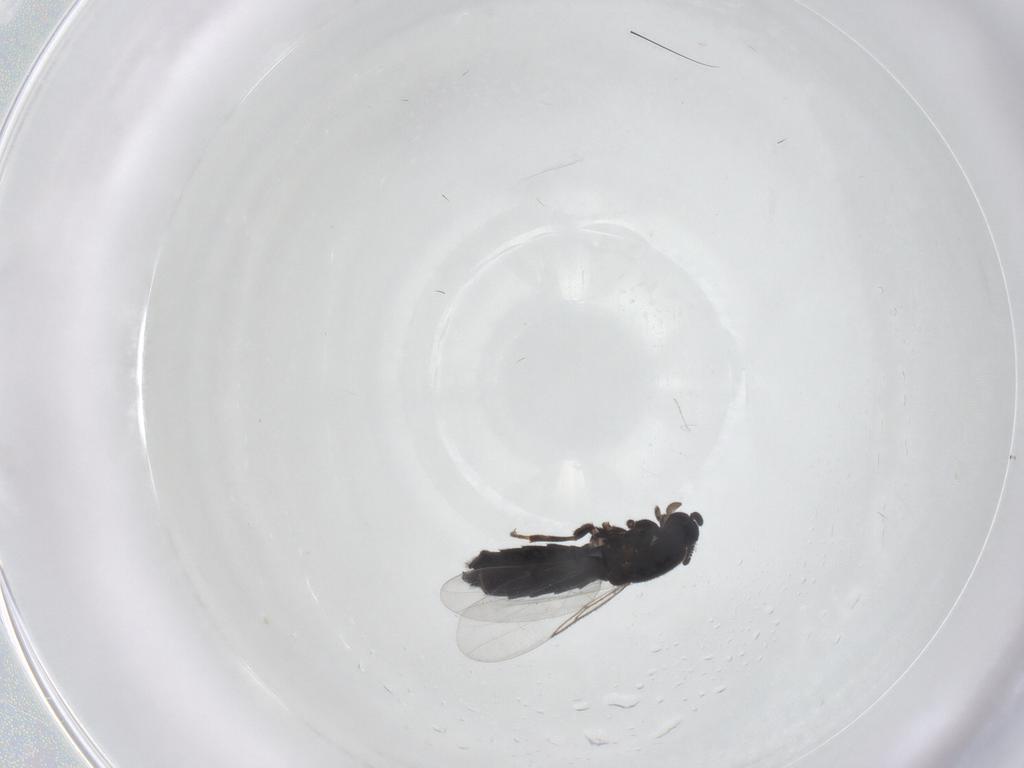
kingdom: Animalia
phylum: Arthropoda
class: Insecta
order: Diptera
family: Scatopsidae
